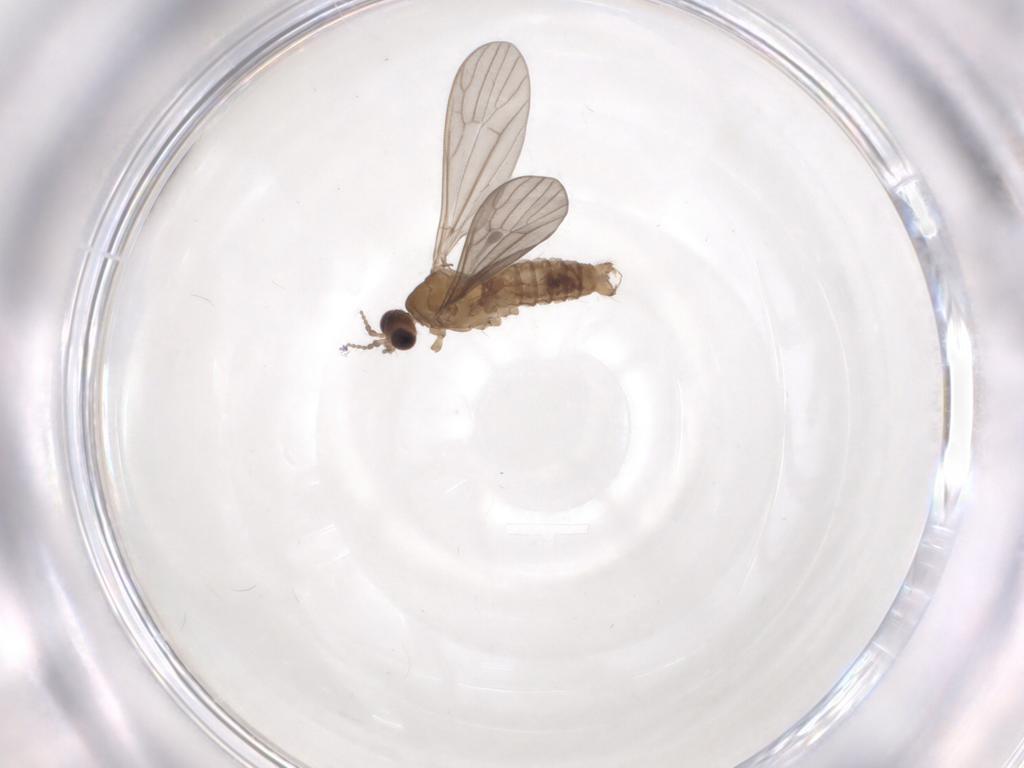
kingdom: Animalia
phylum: Arthropoda
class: Insecta
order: Diptera
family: Limoniidae
